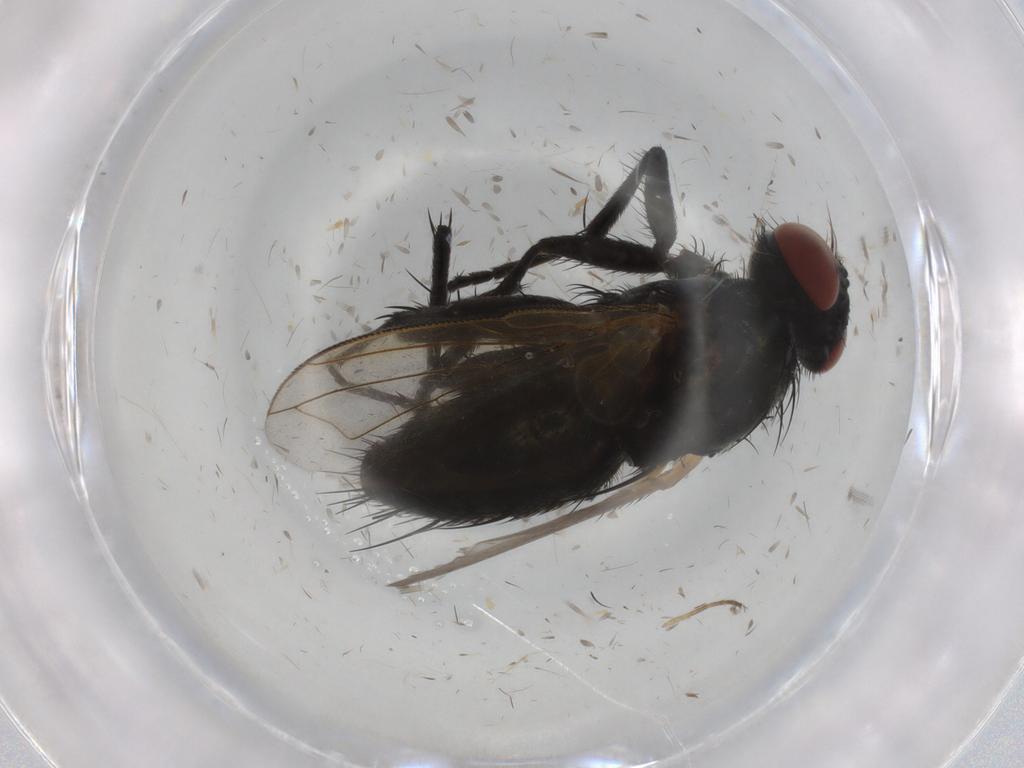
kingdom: Animalia
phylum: Arthropoda
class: Insecta
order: Diptera
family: Tachinidae
